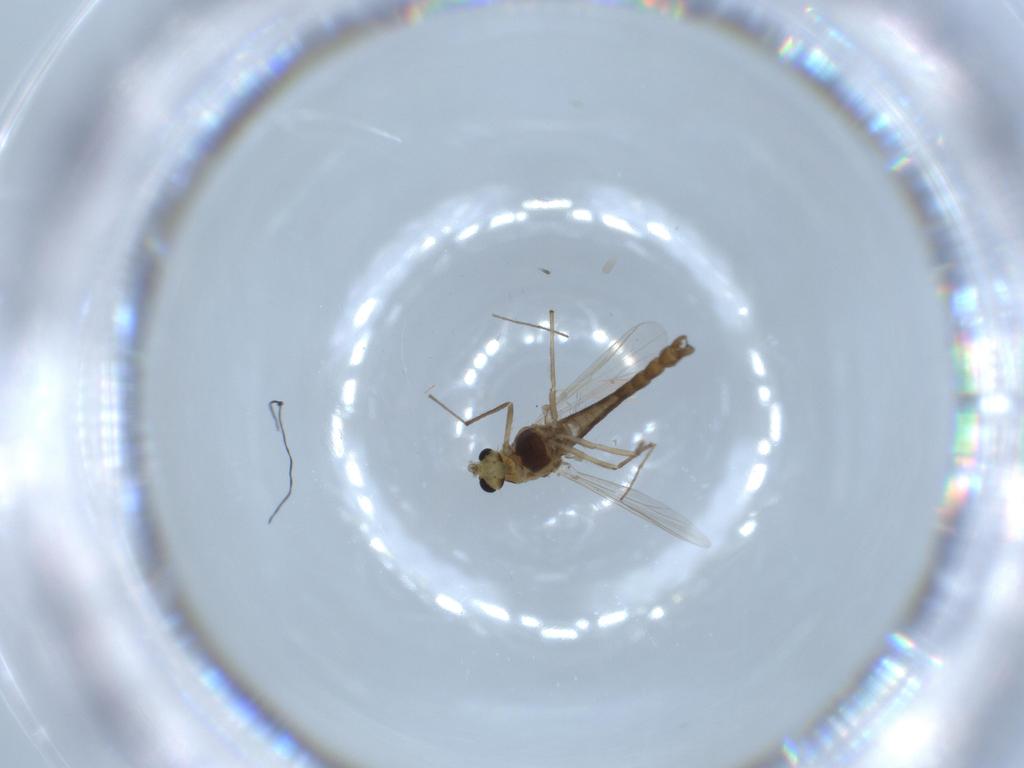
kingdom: Animalia
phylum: Arthropoda
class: Insecta
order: Diptera
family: Chironomidae
